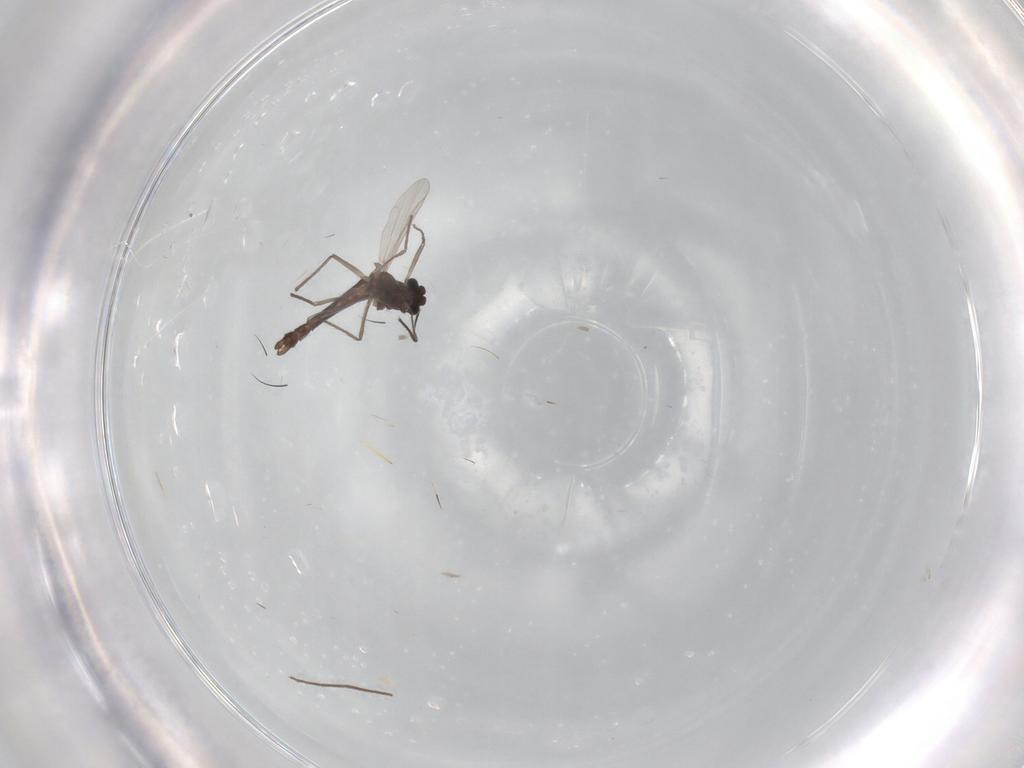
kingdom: Animalia
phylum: Arthropoda
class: Insecta
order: Diptera
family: Chironomidae
